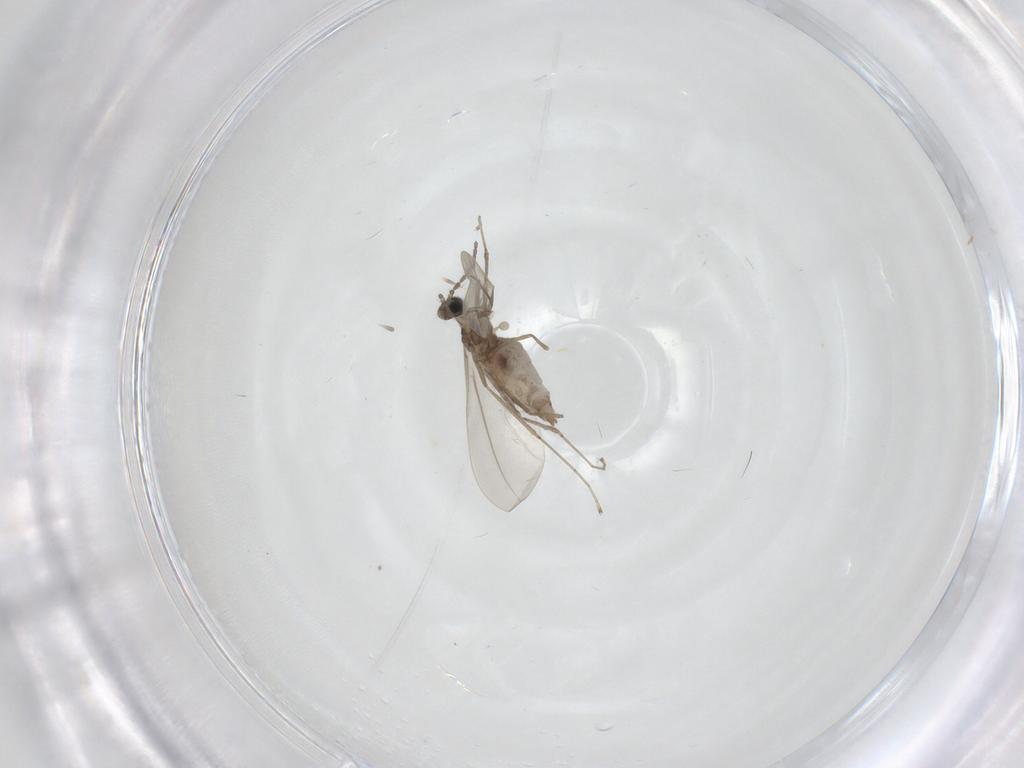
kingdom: Animalia
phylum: Arthropoda
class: Insecta
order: Diptera
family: Cecidomyiidae
